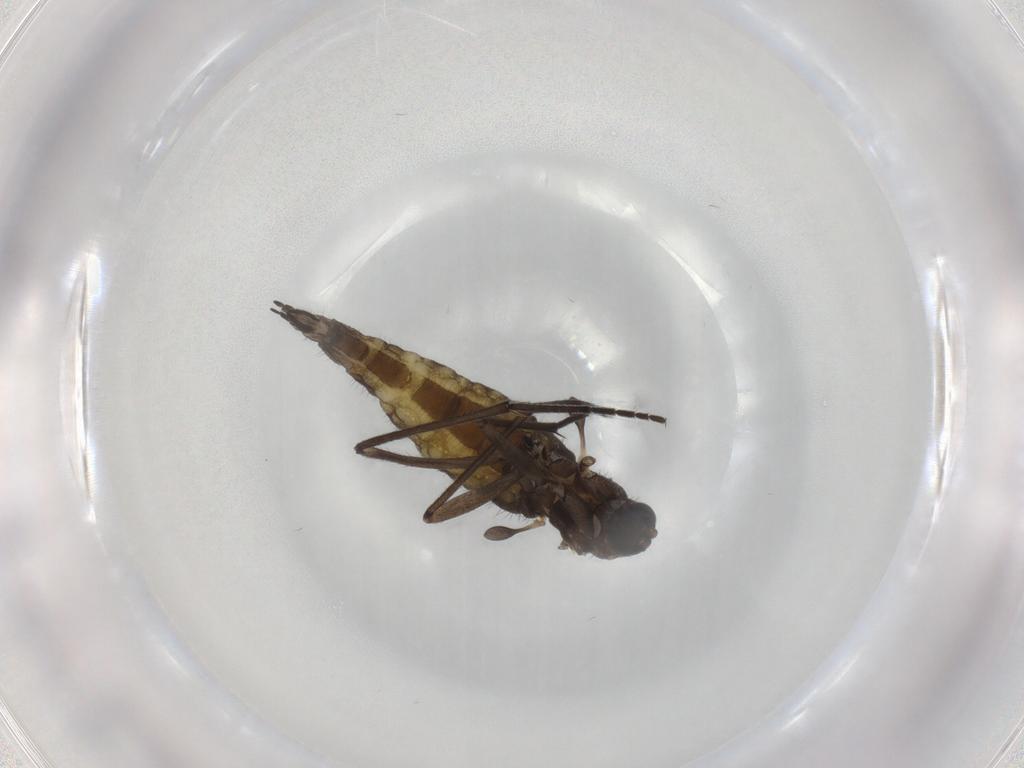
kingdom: Animalia
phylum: Arthropoda
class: Insecta
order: Diptera
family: Sciaridae
